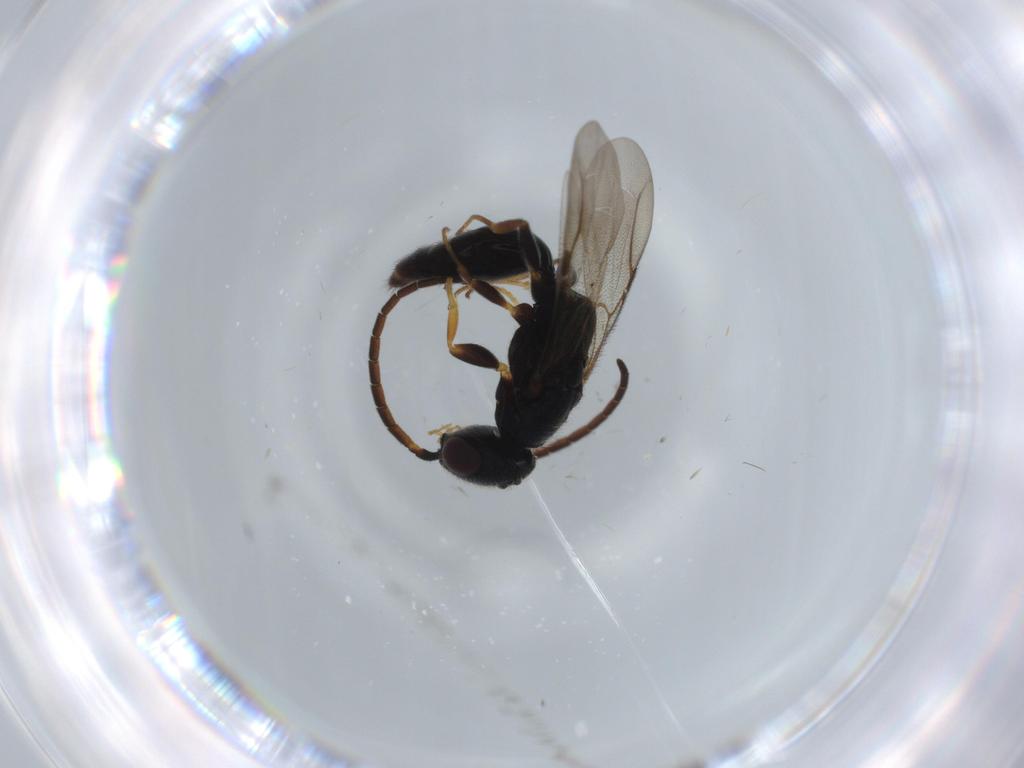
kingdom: Animalia
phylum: Arthropoda
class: Insecta
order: Hymenoptera
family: Bethylidae
